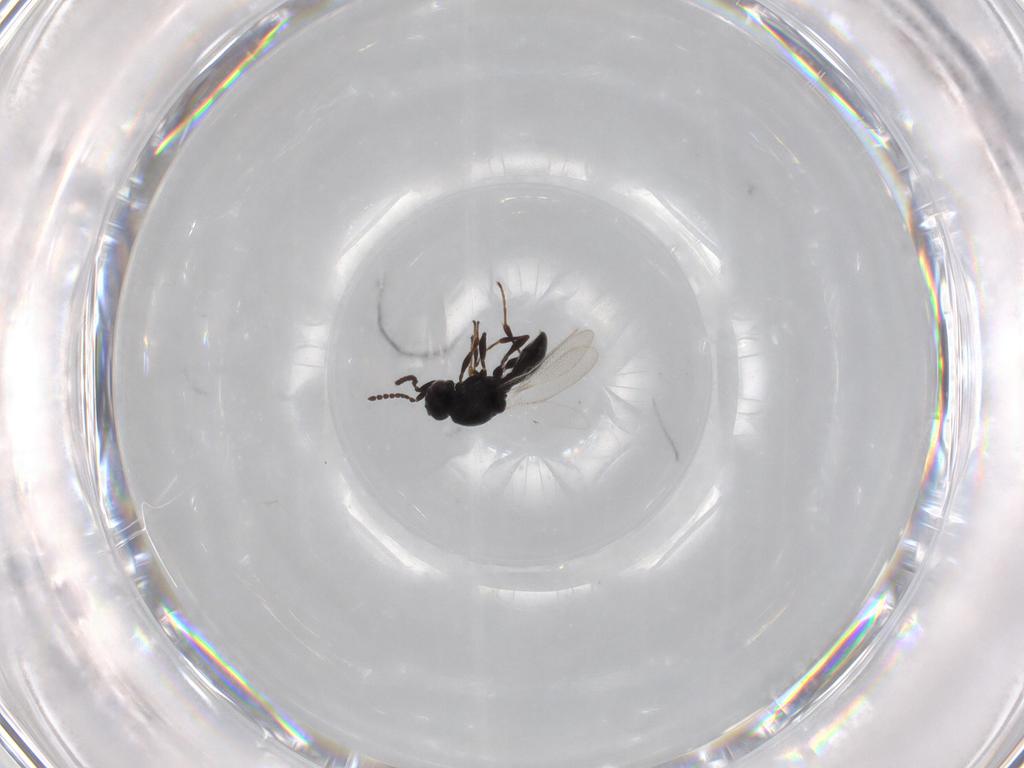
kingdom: Animalia
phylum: Arthropoda
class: Insecta
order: Hymenoptera
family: Platygastridae
